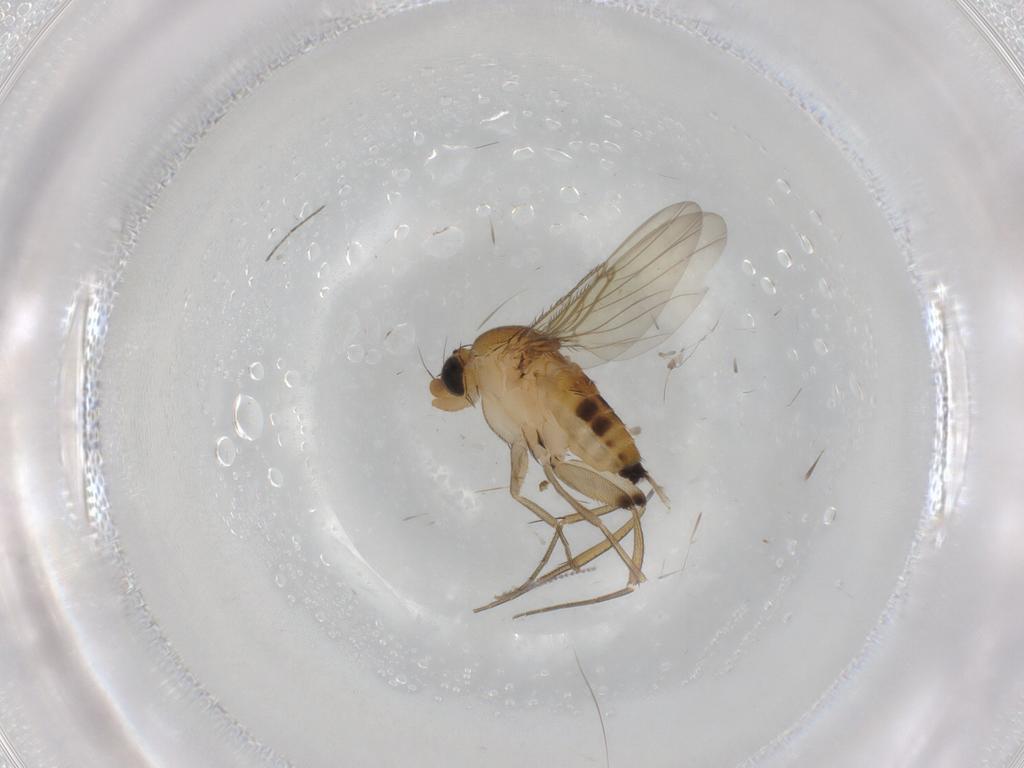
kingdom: Animalia
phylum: Arthropoda
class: Insecta
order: Diptera
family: Phoridae
